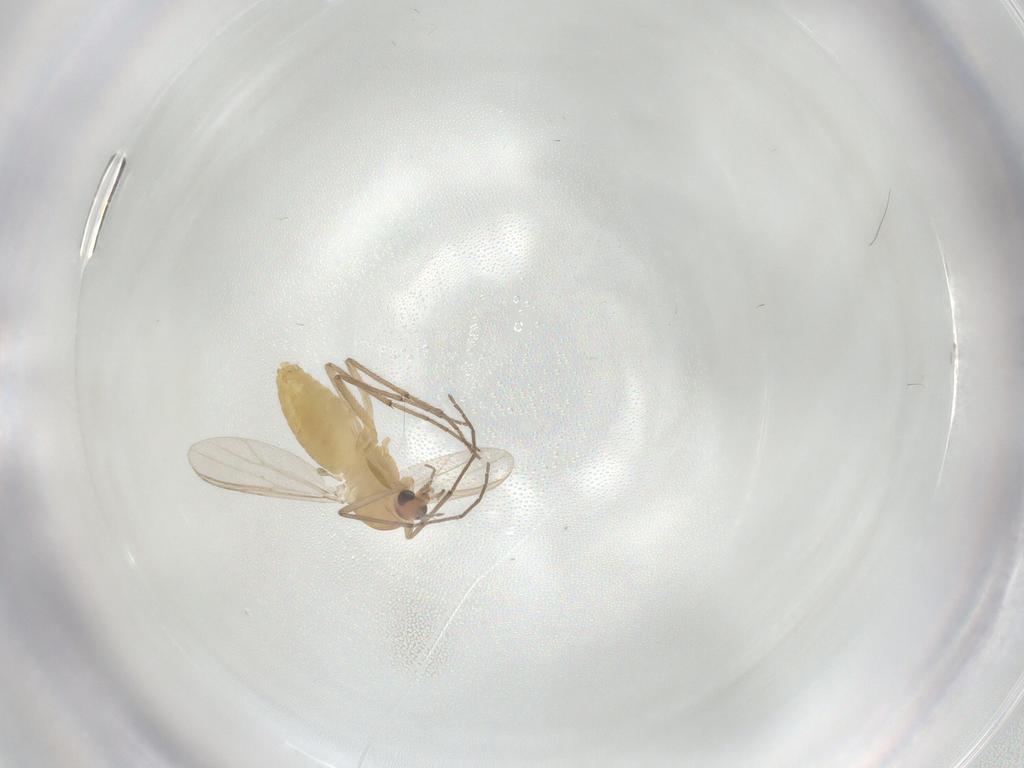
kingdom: Animalia
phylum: Arthropoda
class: Insecta
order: Diptera
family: Chironomidae
